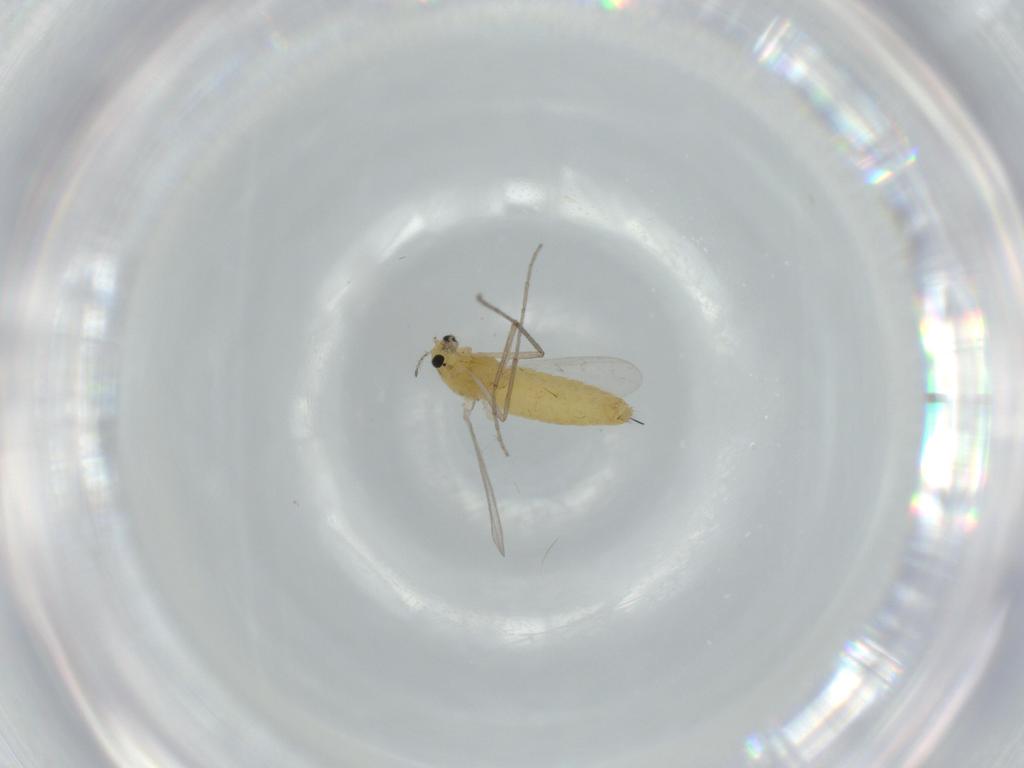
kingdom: Animalia
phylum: Arthropoda
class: Insecta
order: Diptera
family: Chironomidae
